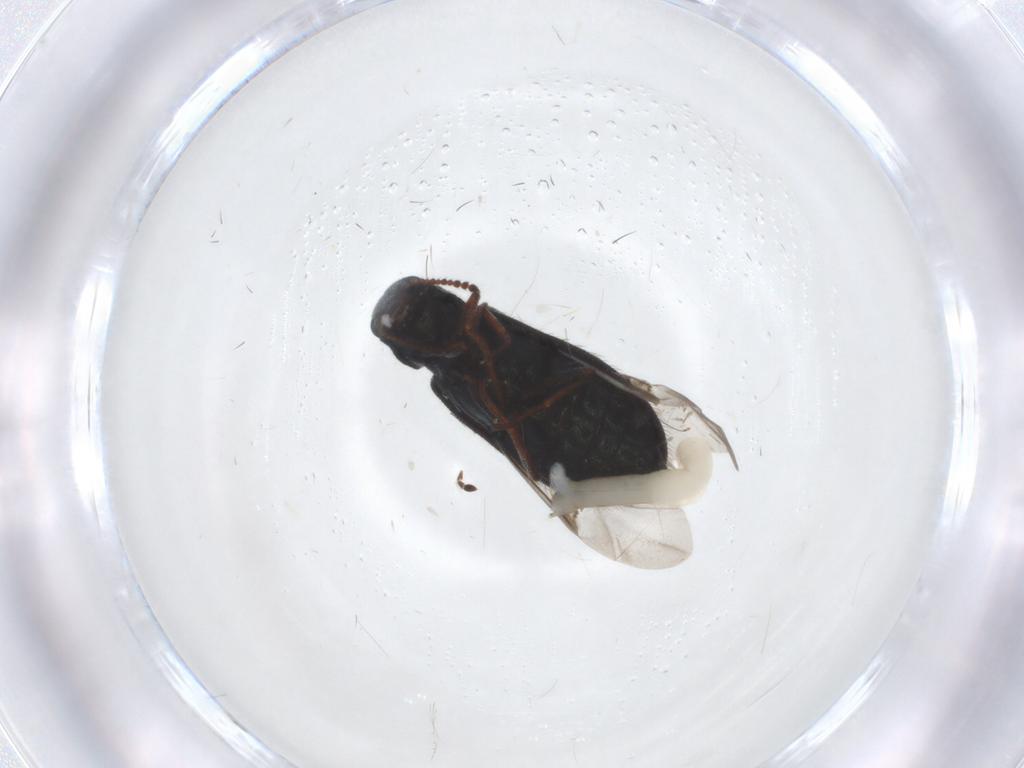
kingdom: Animalia
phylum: Arthropoda
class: Insecta
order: Coleoptera
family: Melyridae
